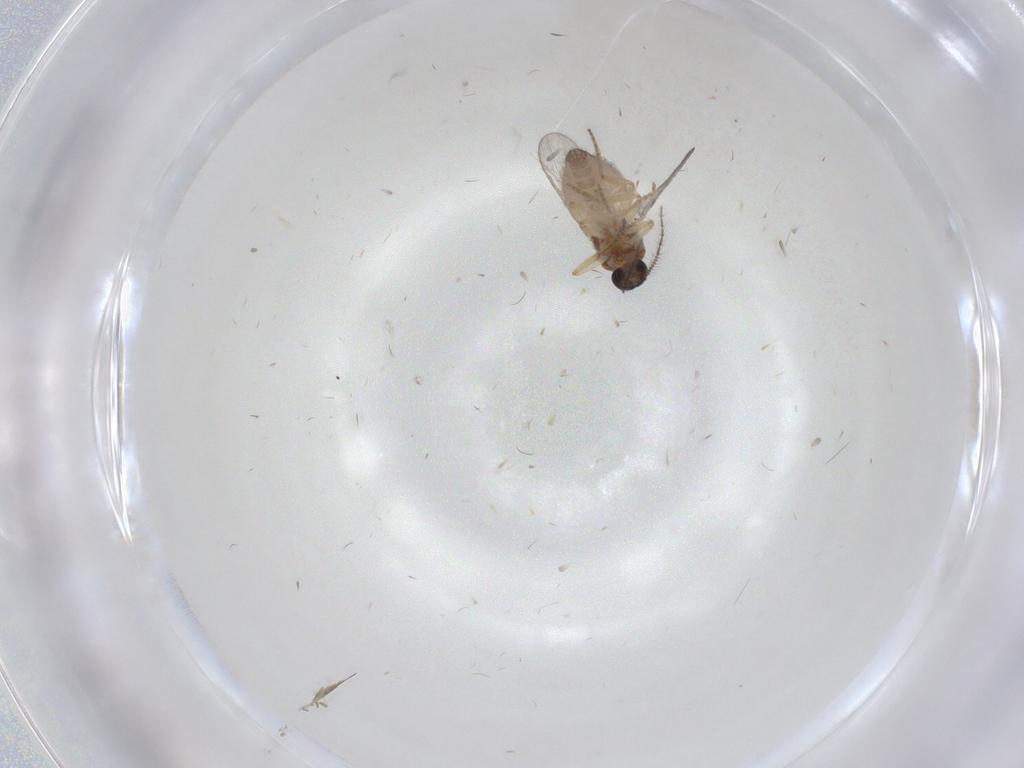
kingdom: Animalia
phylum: Arthropoda
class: Insecta
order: Diptera
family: Ceratopogonidae
